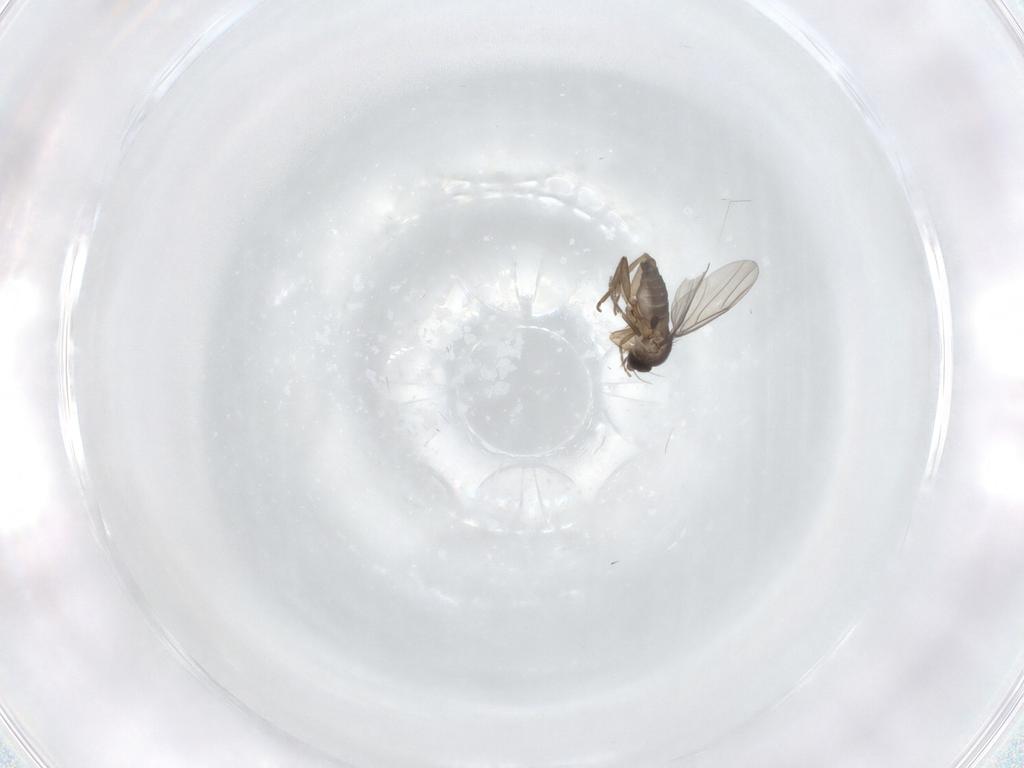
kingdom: Animalia
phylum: Arthropoda
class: Insecta
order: Diptera
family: Phoridae
